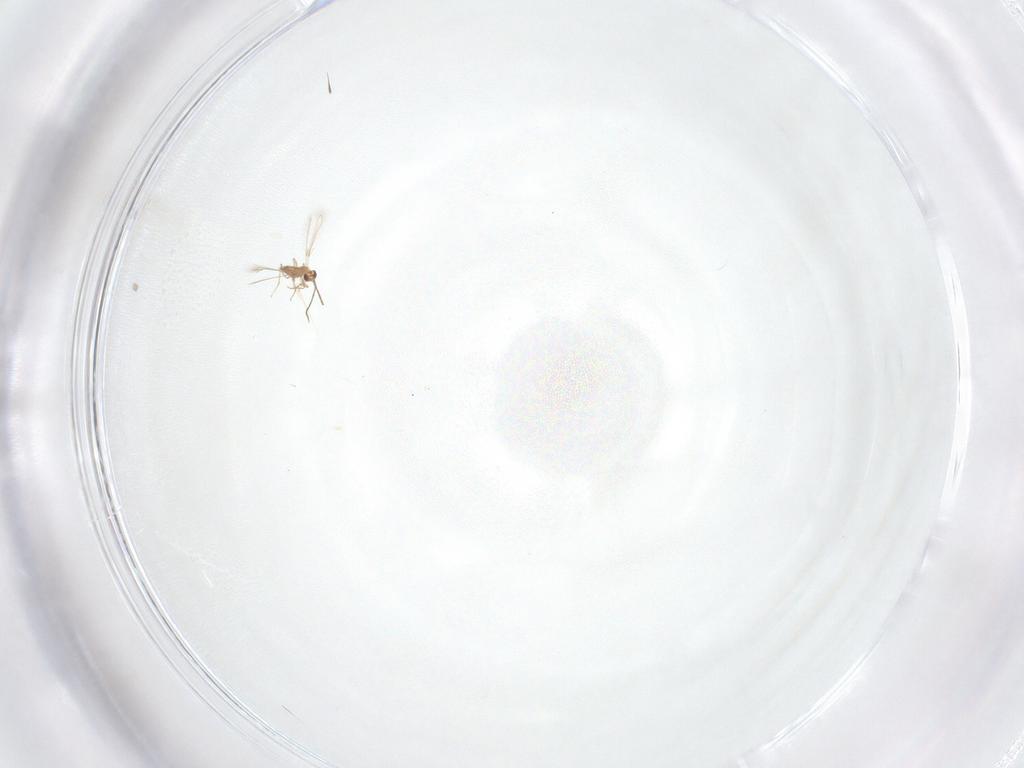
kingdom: Animalia
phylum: Arthropoda
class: Insecta
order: Hymenoptera
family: Mymaridae
